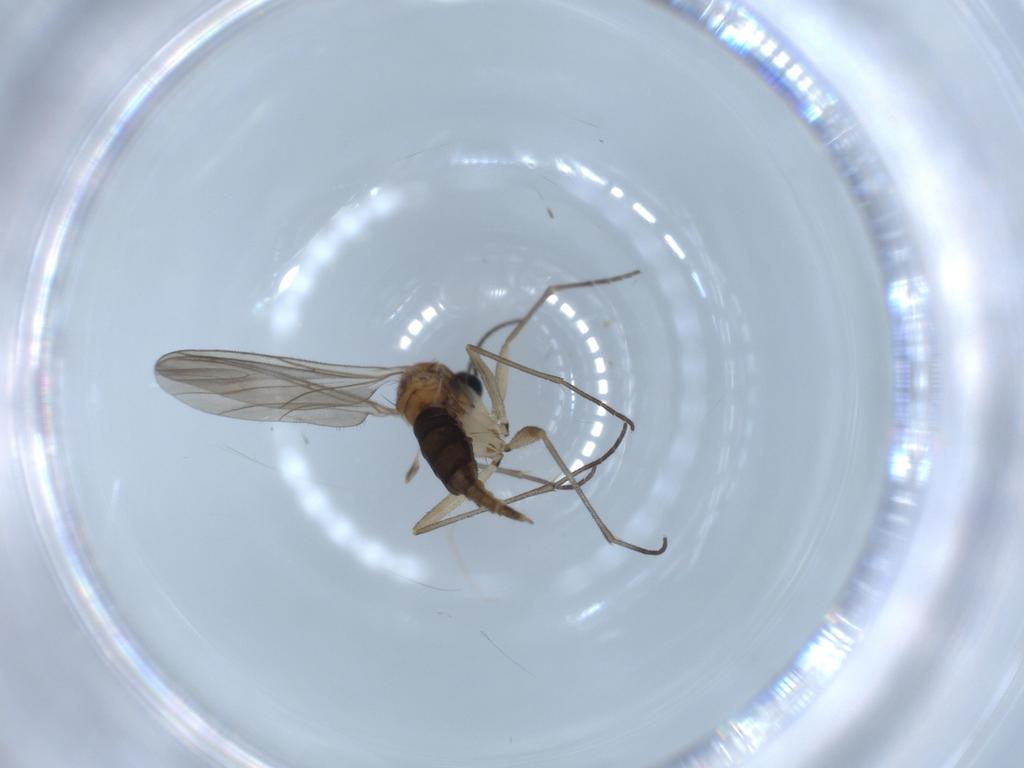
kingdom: Animalia
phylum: Arthropoda
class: Insecta
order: Diptera
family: Sciaridae
